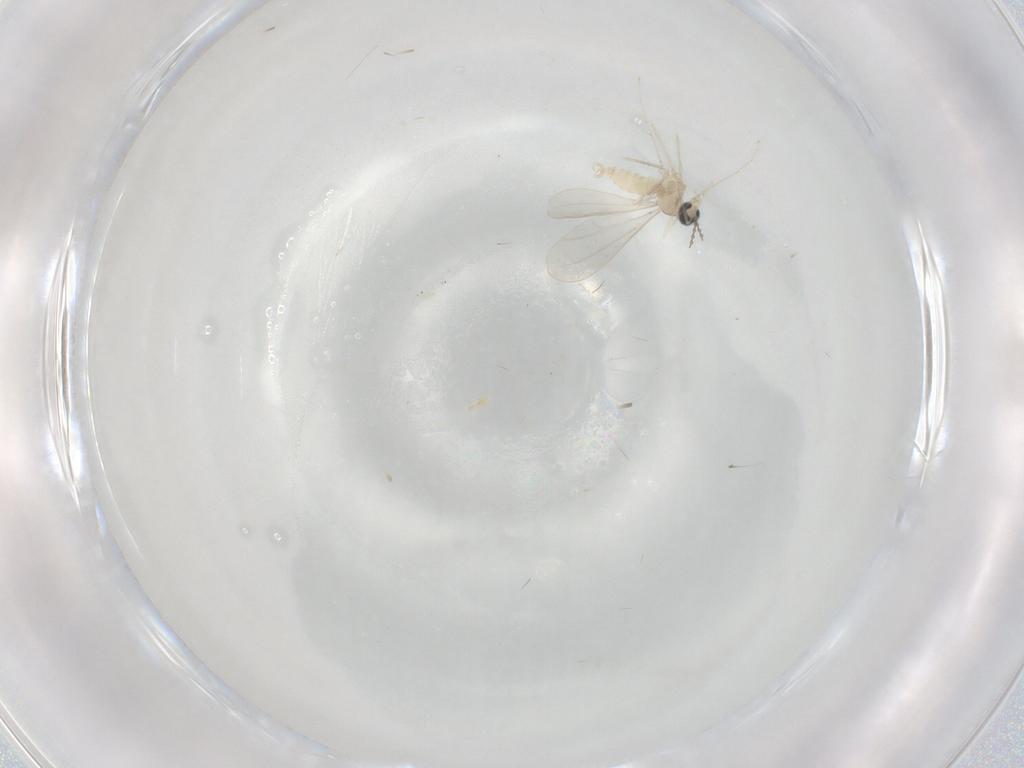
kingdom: Animalia
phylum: Arthropoda
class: Insecta
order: Diptera
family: Cecidomyiidae
